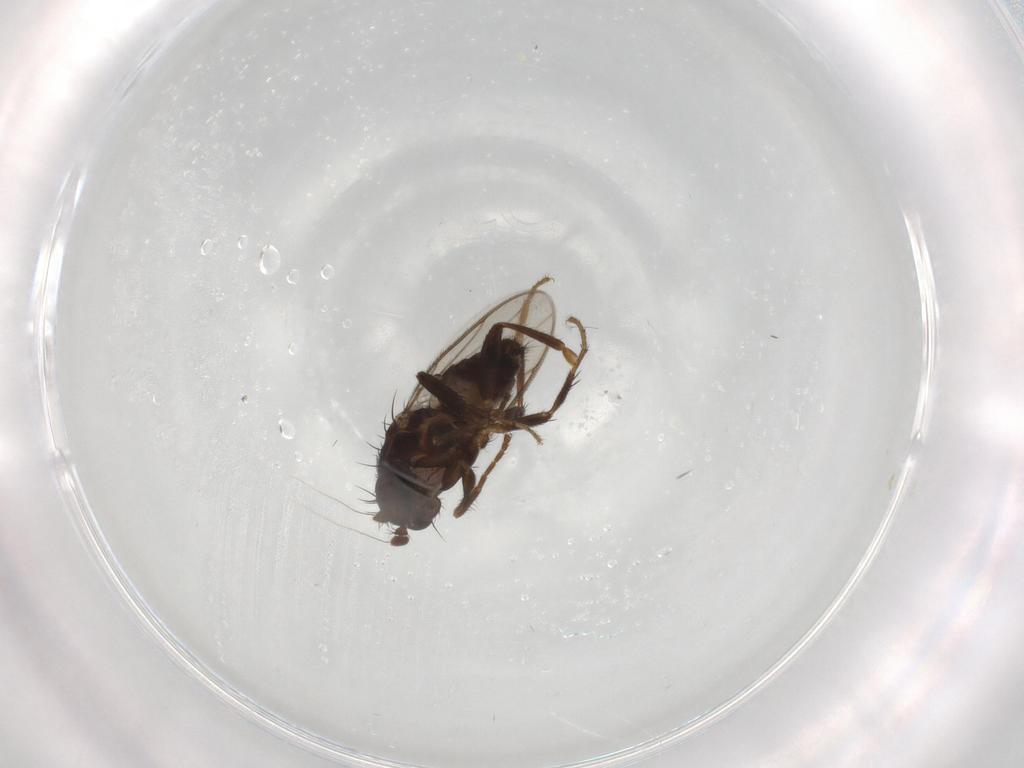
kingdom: Animalia
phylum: Arthropoda
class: Insecta
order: Diptera
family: Sphaeroceridae
